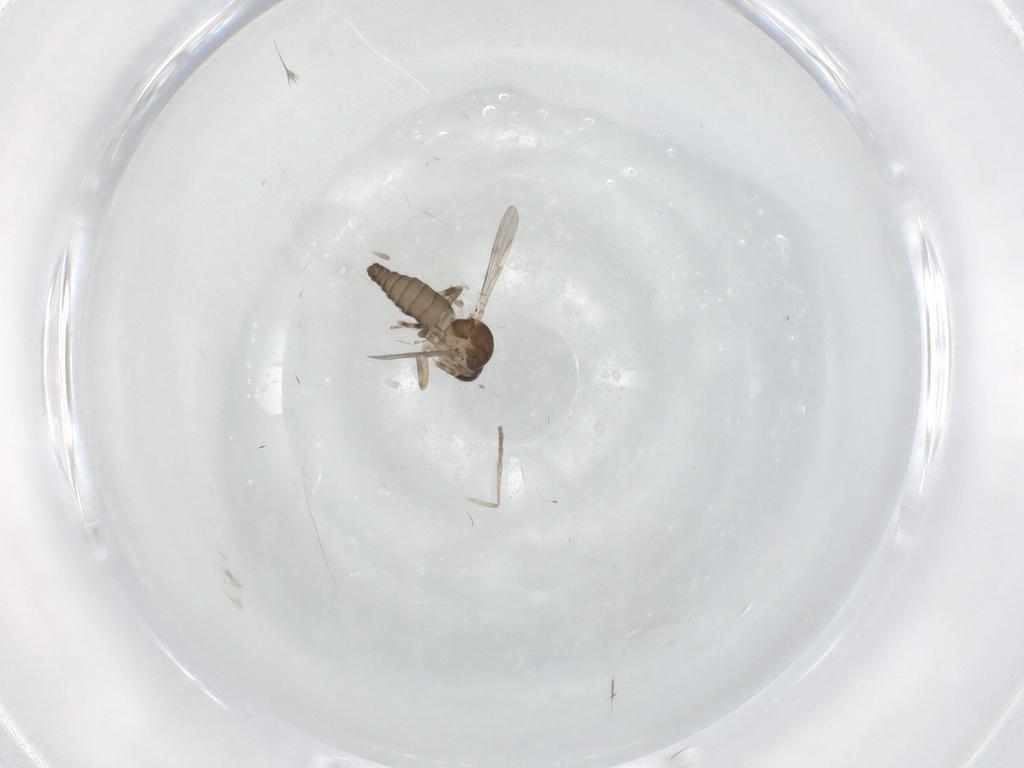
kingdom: Animalia
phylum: Arthropoda
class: Insecta
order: Diptera
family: Ceratopogonidae
